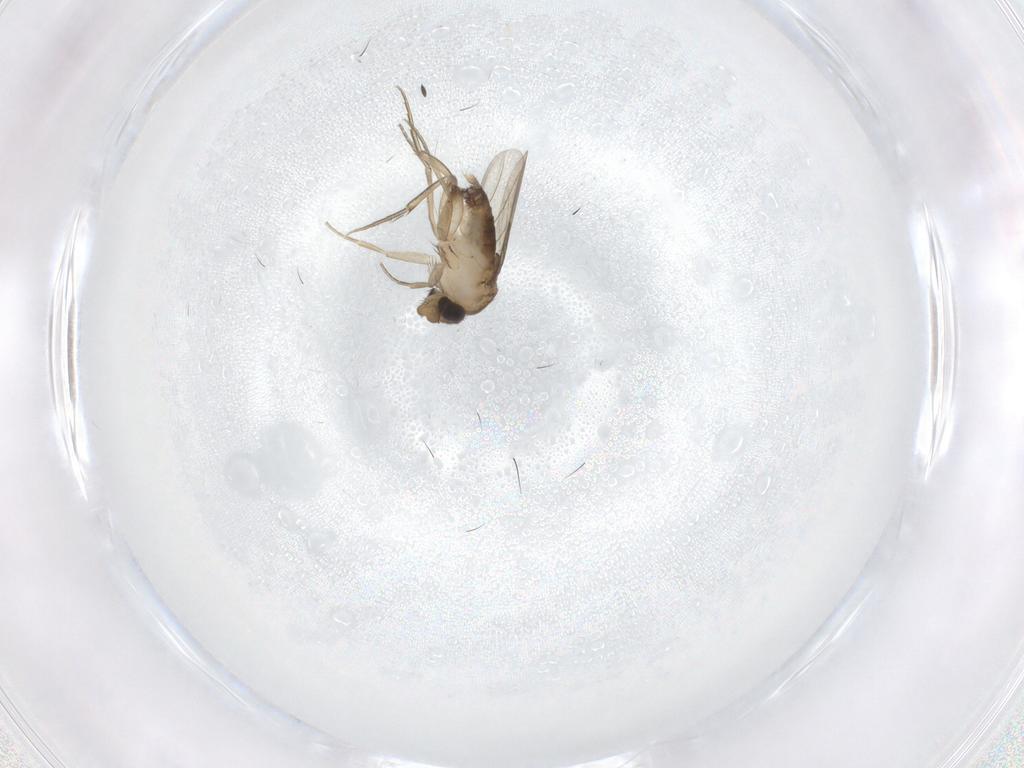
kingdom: Animalia
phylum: Arthropoda
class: Insecta
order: Diptera
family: Phoridae
